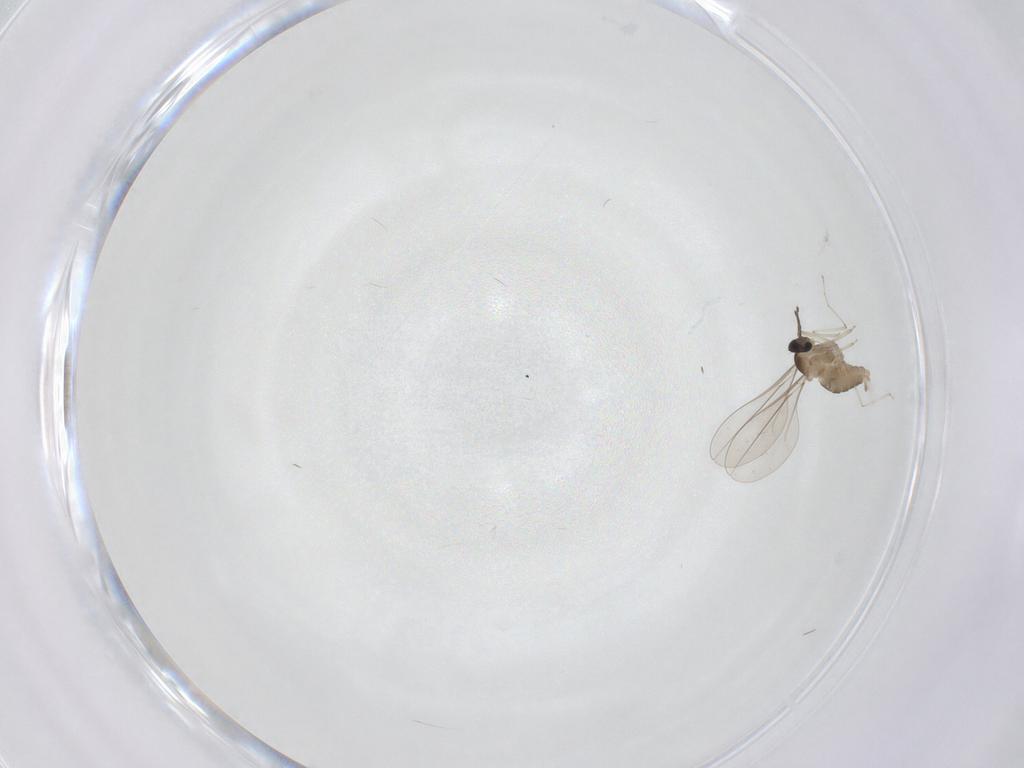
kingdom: Animalia
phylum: Arthropoda
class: Insecta
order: Diptera
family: Cecidomyiidae
